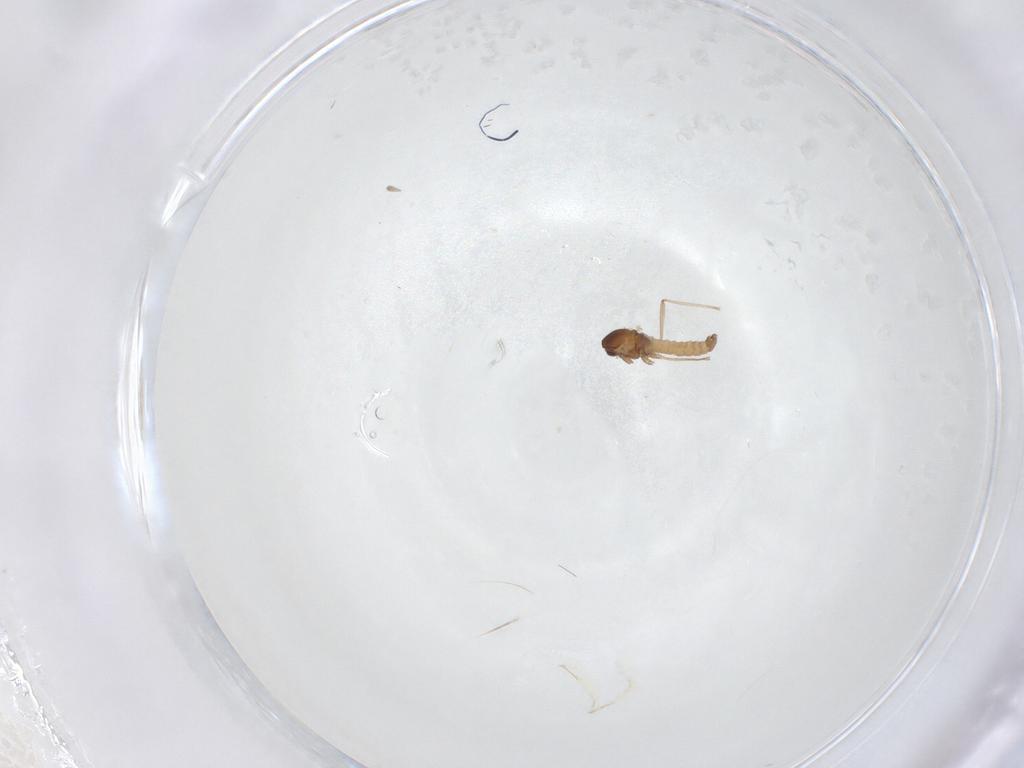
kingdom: Animalia
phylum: Arthropoda
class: Insecta
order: Diptera
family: Cecidomyiidae
